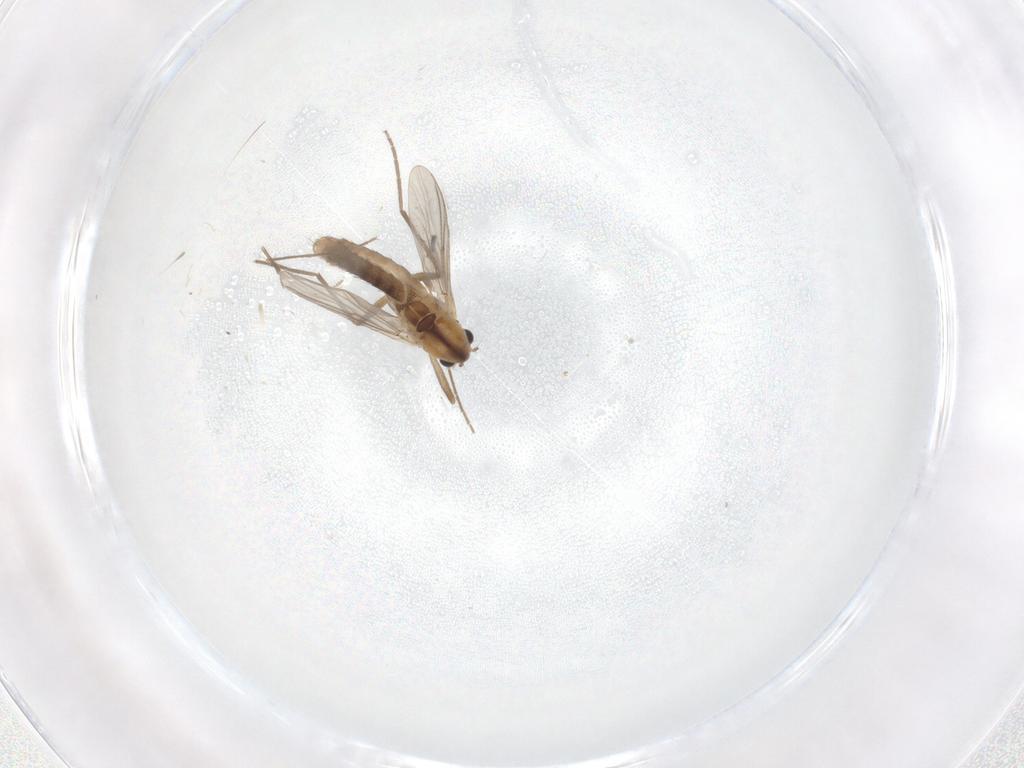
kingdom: Animalia
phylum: Arthropoda
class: Insecta
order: Diptera
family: Chironomidae
